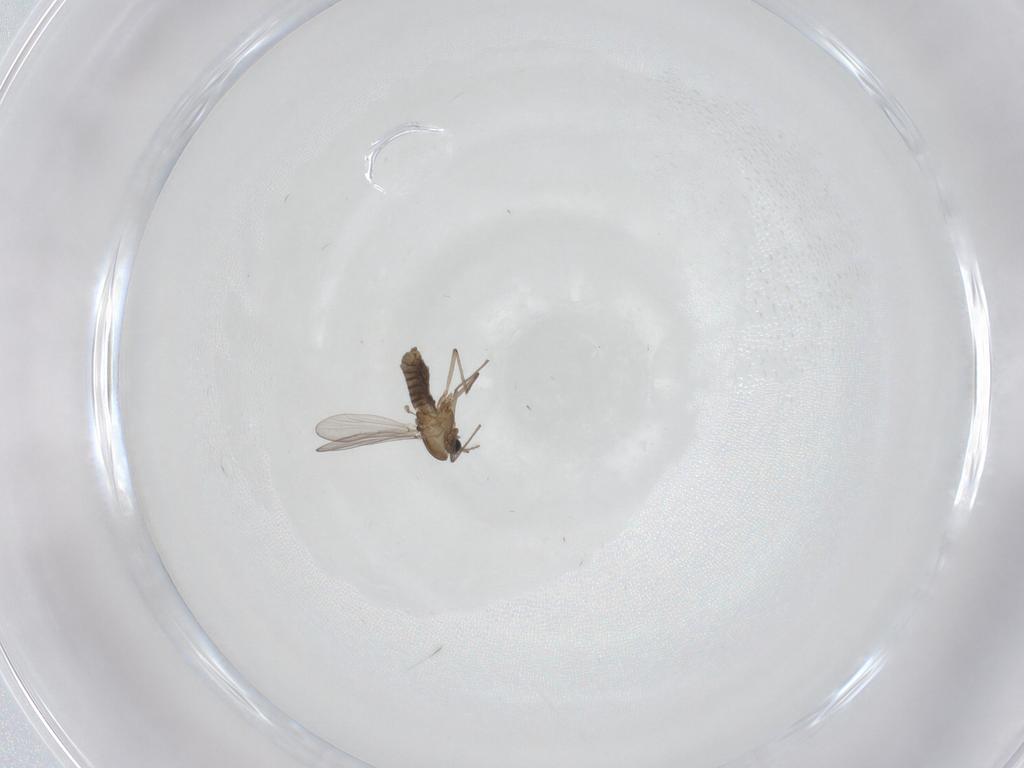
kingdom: Animalia
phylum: Arthropoda
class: Insecta
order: Diptera
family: Chironomidae
